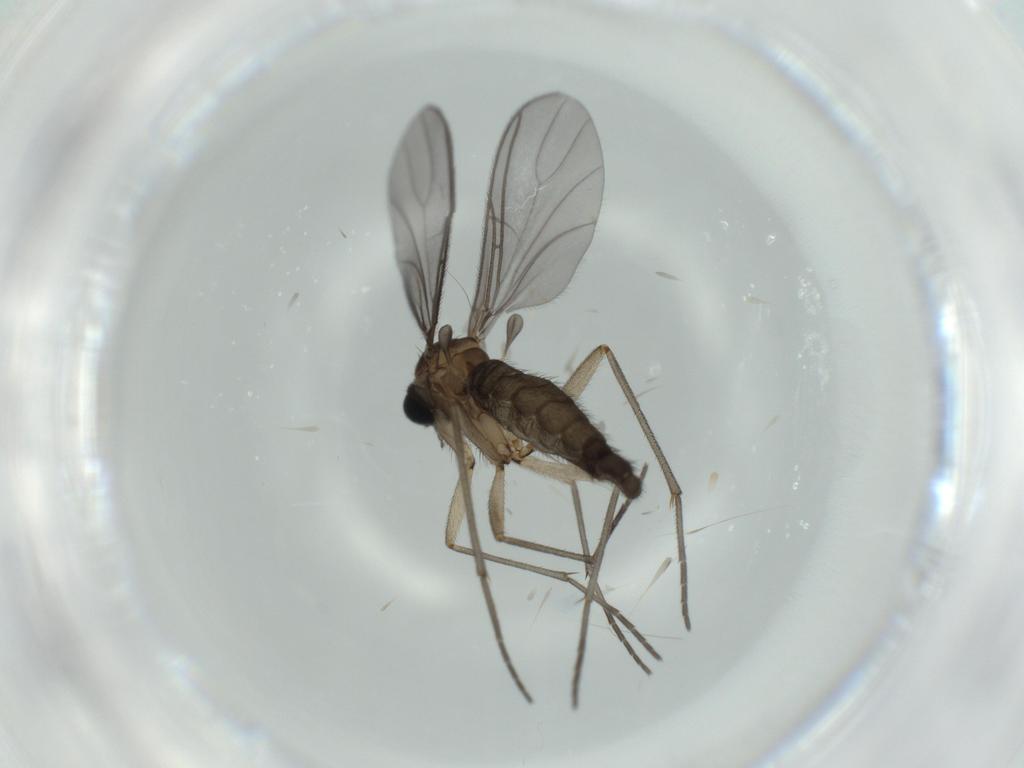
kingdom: Animalia
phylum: Arthropoda
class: Insecta
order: Diptera
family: Sciaridae
